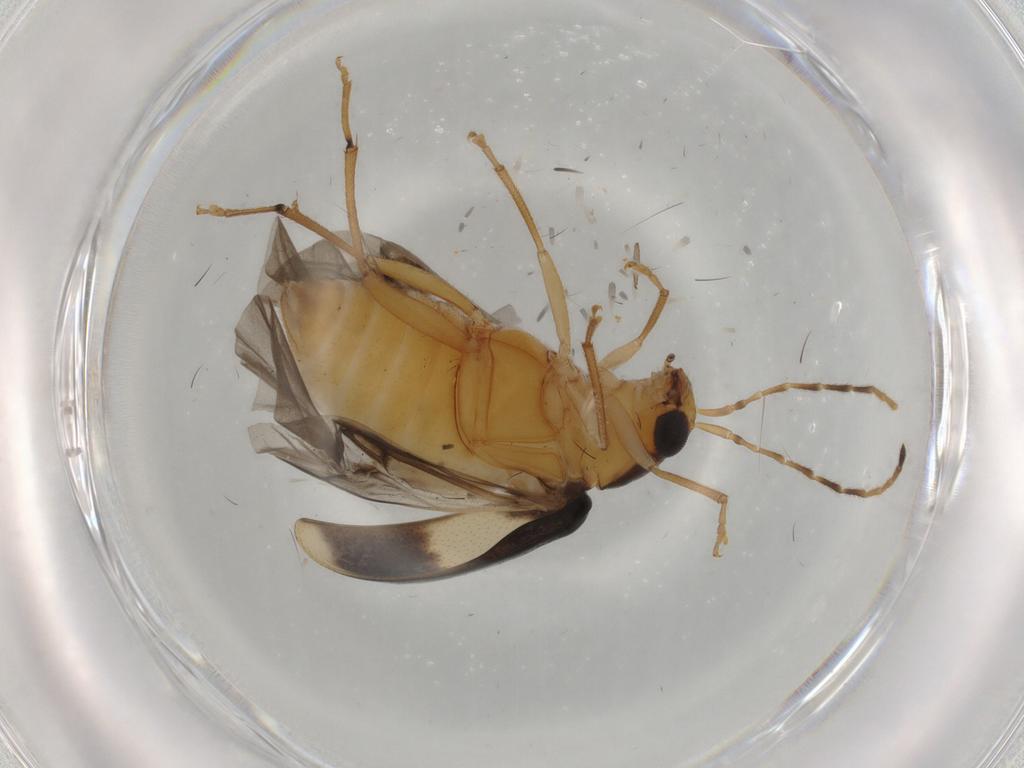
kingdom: Animalia
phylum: Arthropoda
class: Insecta
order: Coleoptera
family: Chrysomelidae
